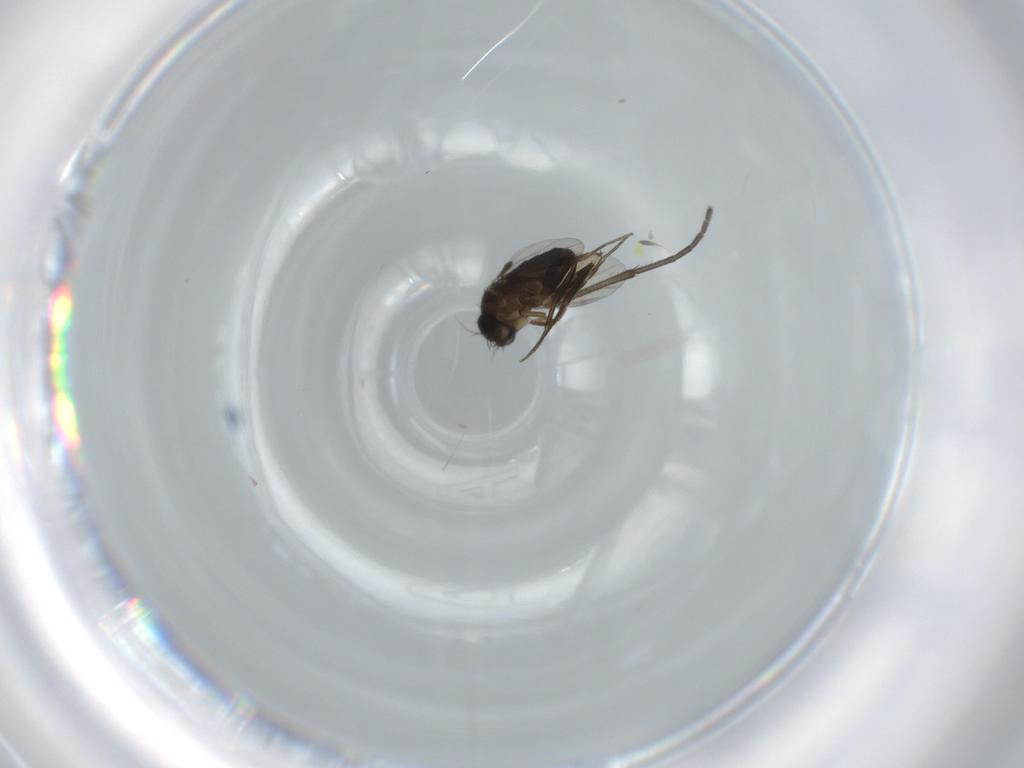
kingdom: Animalia
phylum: Arthropoda
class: Insecta
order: Diptera
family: Phoridae
